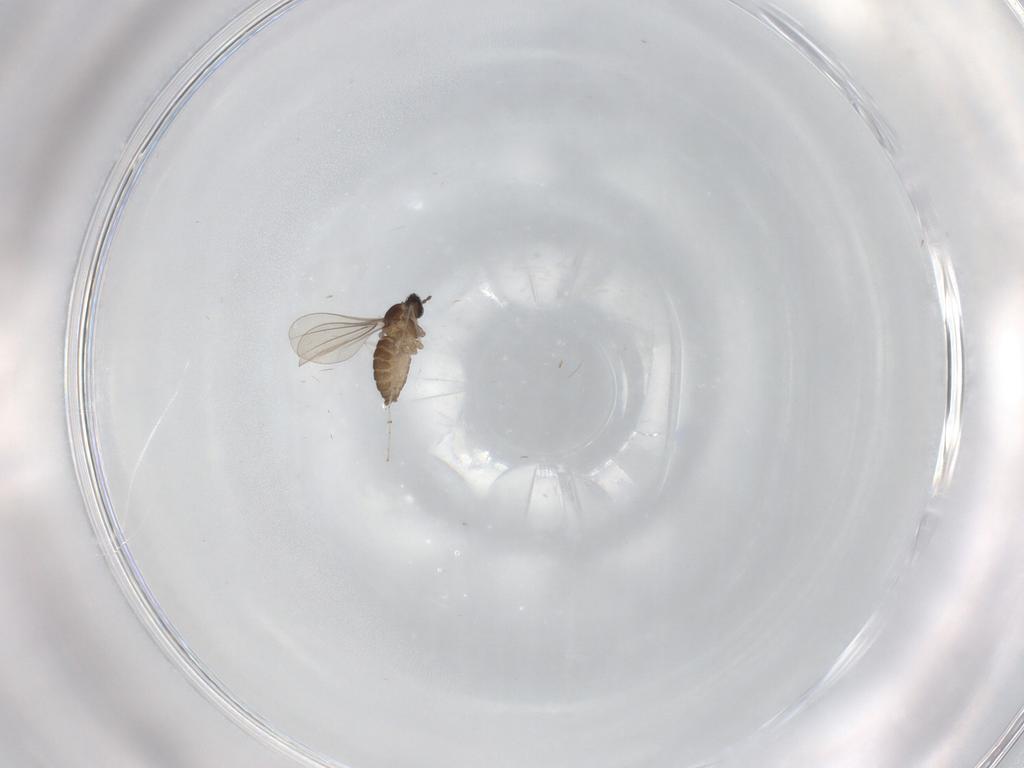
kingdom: Animalia
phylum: Arthropoda
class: Insecta
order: Diptera
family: Cecidomyiidae
